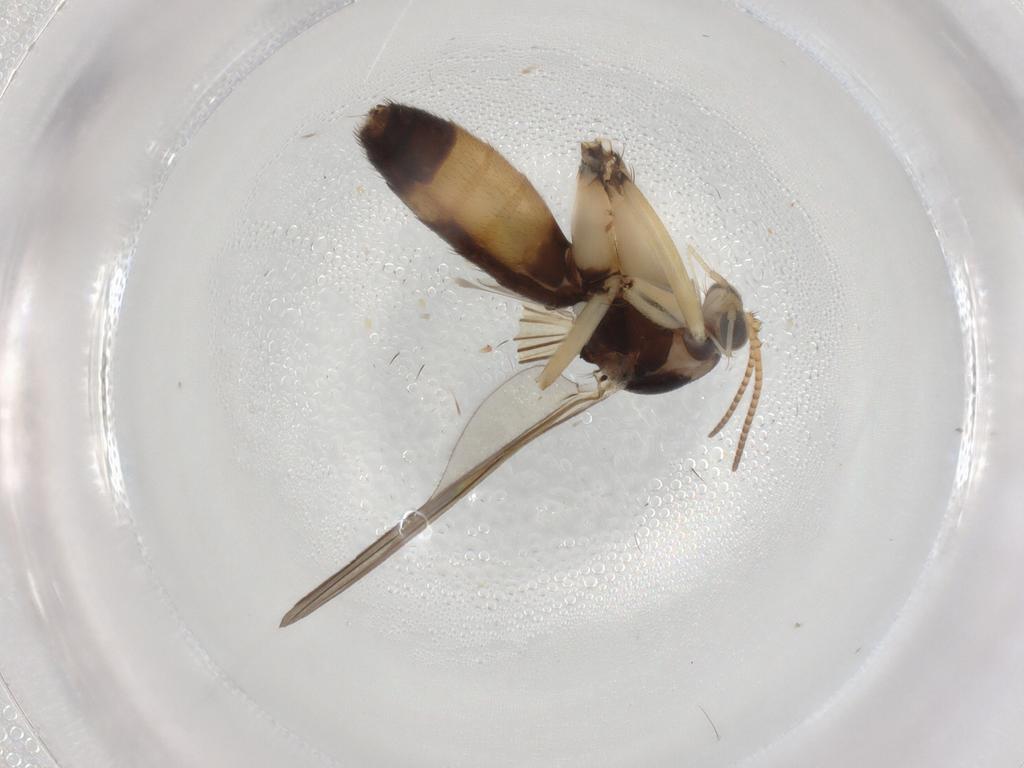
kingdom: Animalia
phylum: Arthropoda
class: Insecta
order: Diptera
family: Mycetophilidae
